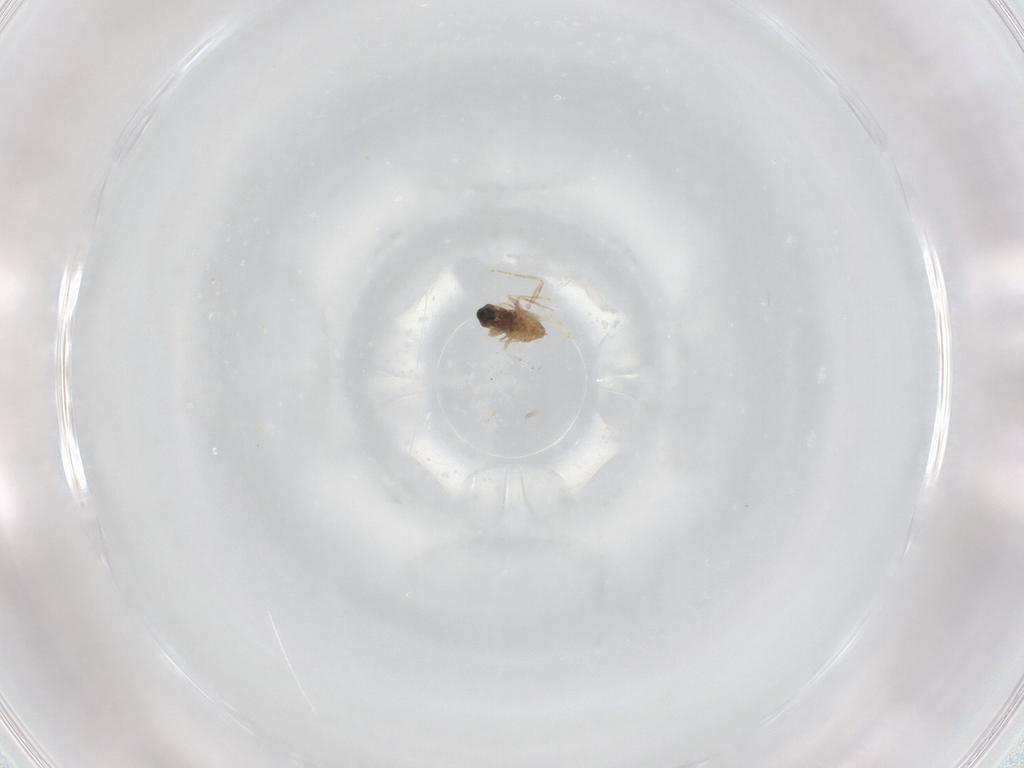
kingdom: Animalia
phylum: Arthropoda
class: Insecta
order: Diptera
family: Cecidomyiidae
